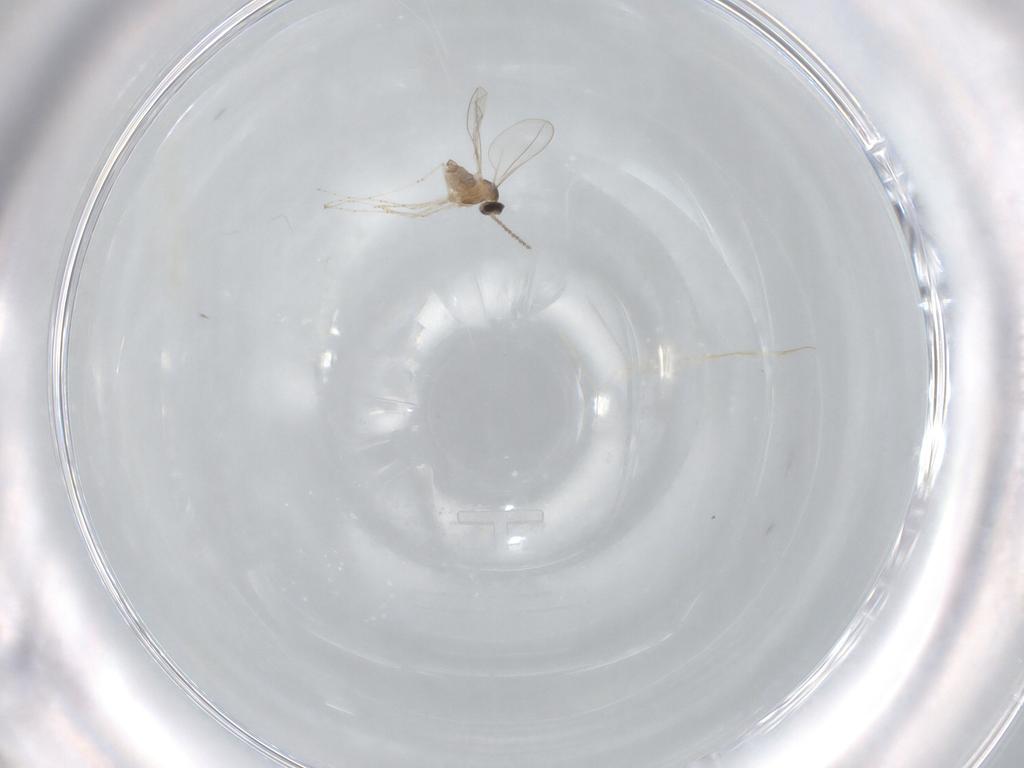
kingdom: Animalia
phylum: Arthropoda
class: Insecta
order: Diptera
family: Cecidomyiidae
